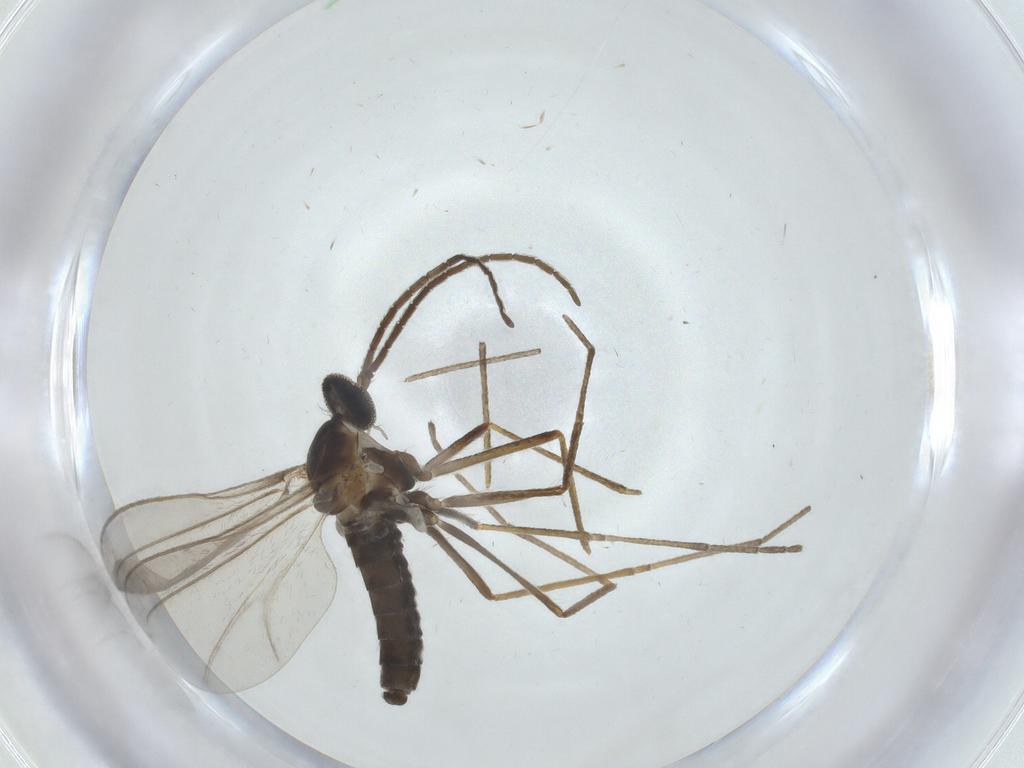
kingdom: Animalia
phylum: Arthropoda
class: Insecta
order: Diptera
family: Cecidomyiidae
